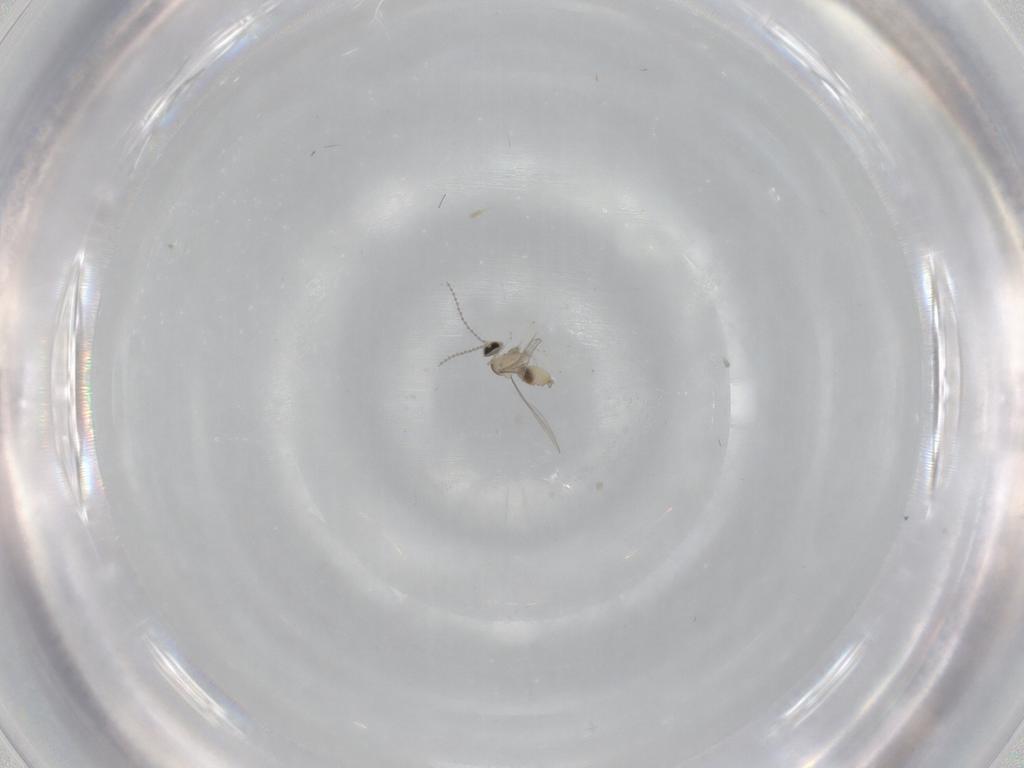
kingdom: Animalia
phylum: Arthropoda
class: Insecta
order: Diptera
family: Cecidomyiidae
